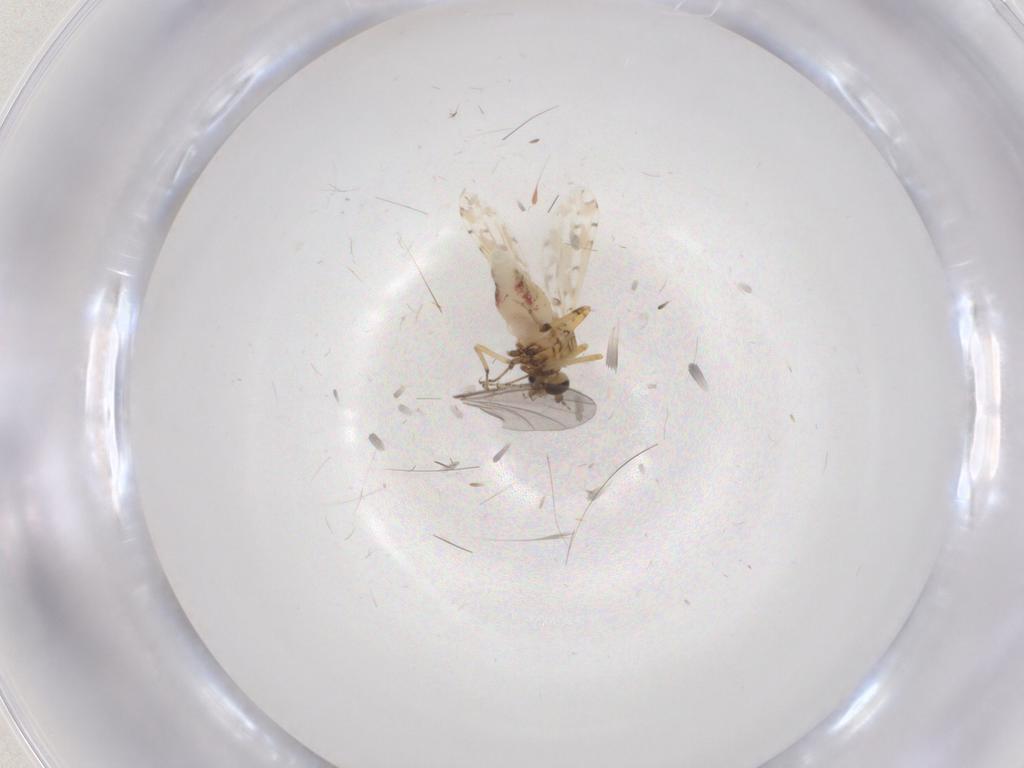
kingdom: Animalia
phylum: Arthropoda
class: Insecta
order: Diptera
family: Ceratopogonidae
